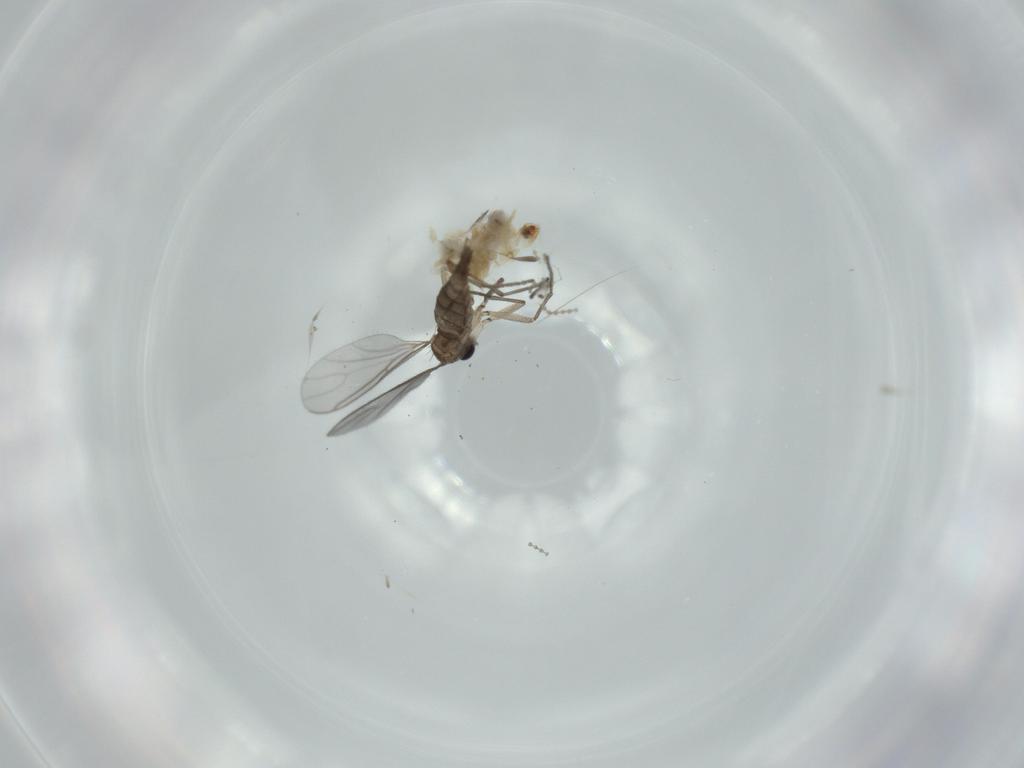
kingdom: Animalia
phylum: Arthropoda
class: Insecta
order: Diptera
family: Sciaridae
